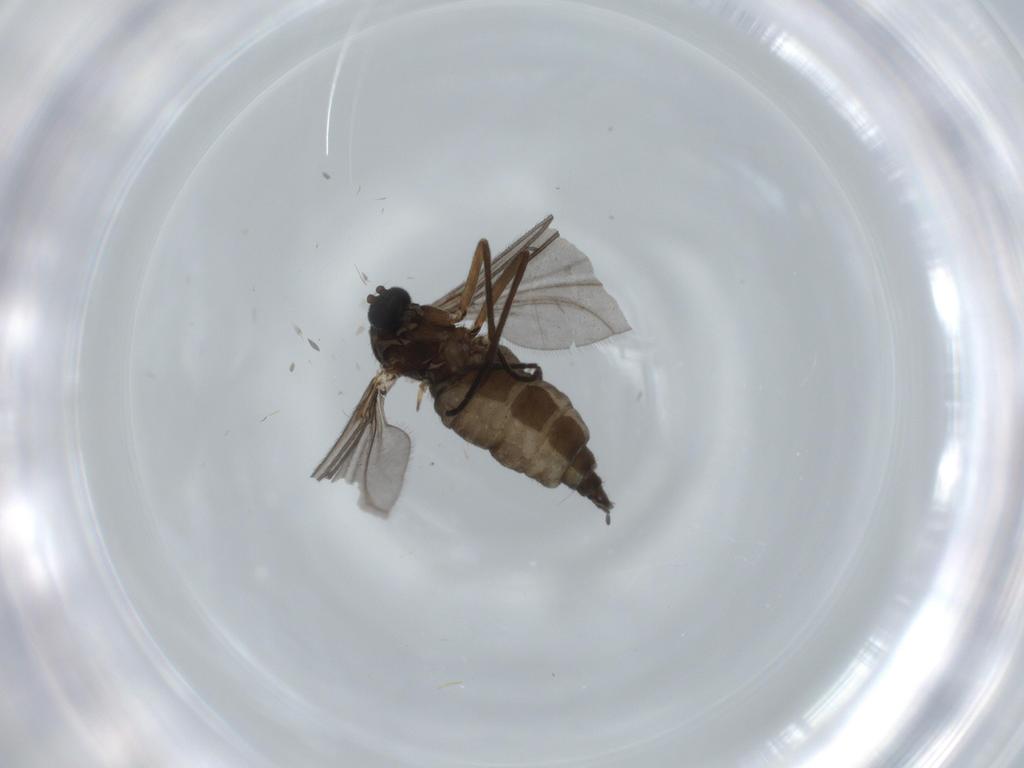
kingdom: Animalia
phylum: Arthropoda
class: Insecta
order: Diptera
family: Sciaridae
